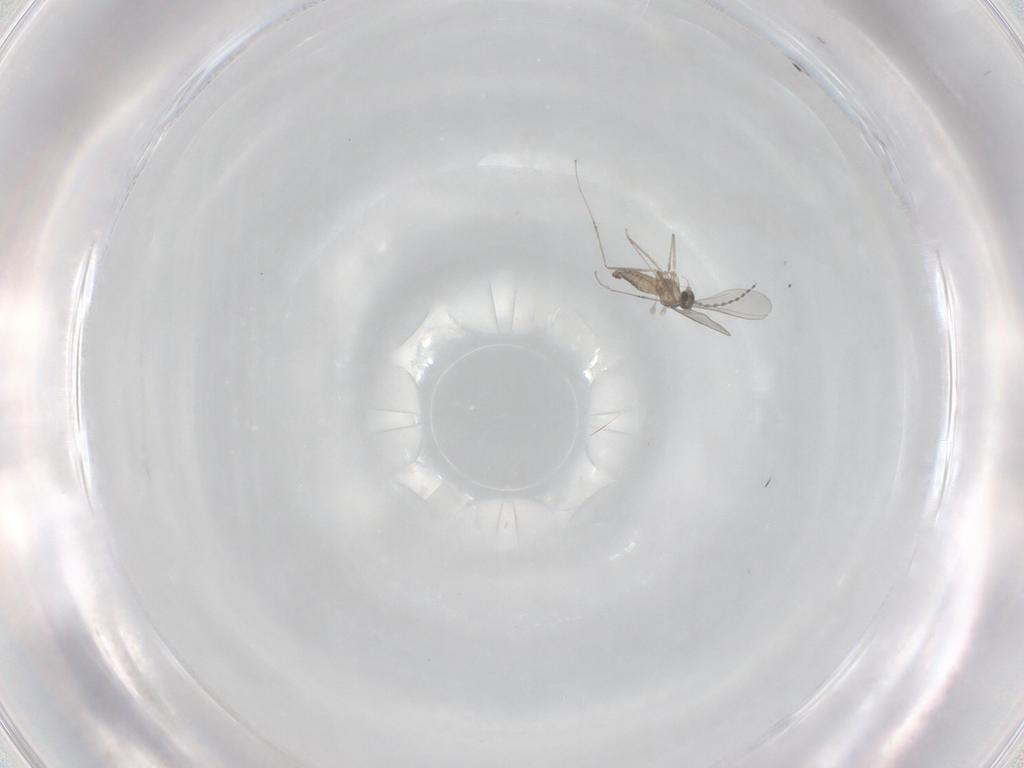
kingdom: Animalia
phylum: Arthropoda
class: Insecta
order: Diptera
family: Cecidomyiidae
